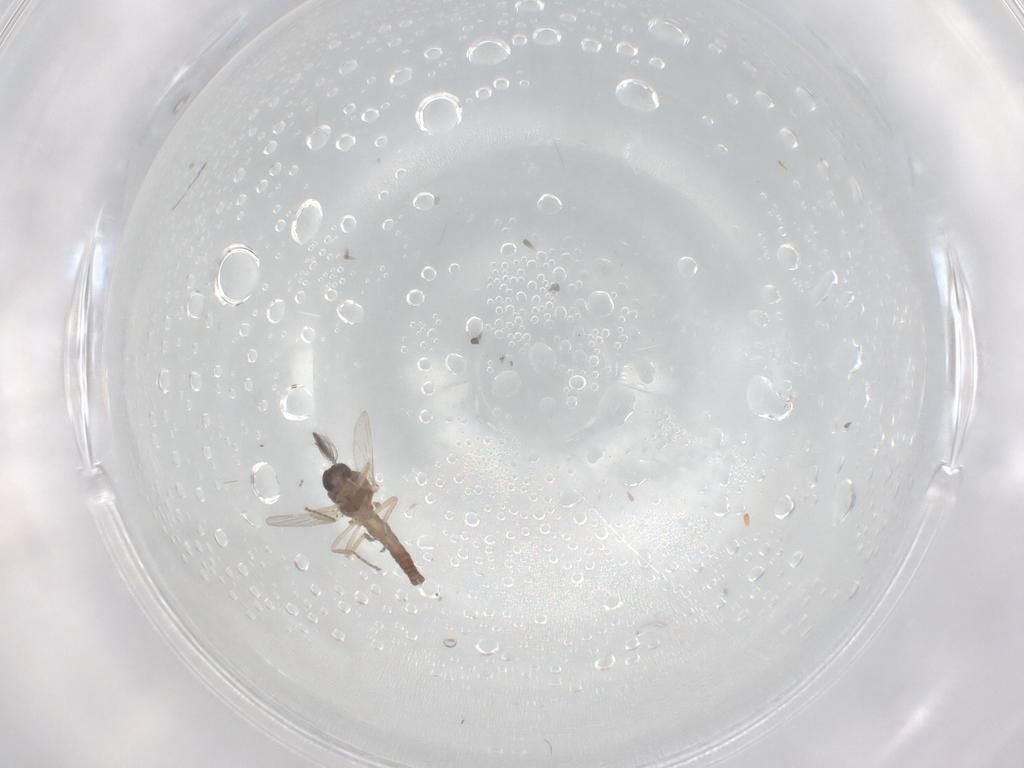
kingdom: Animalia
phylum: Arthropoda
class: Insecta
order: Diptera
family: Ceratopogonidae
